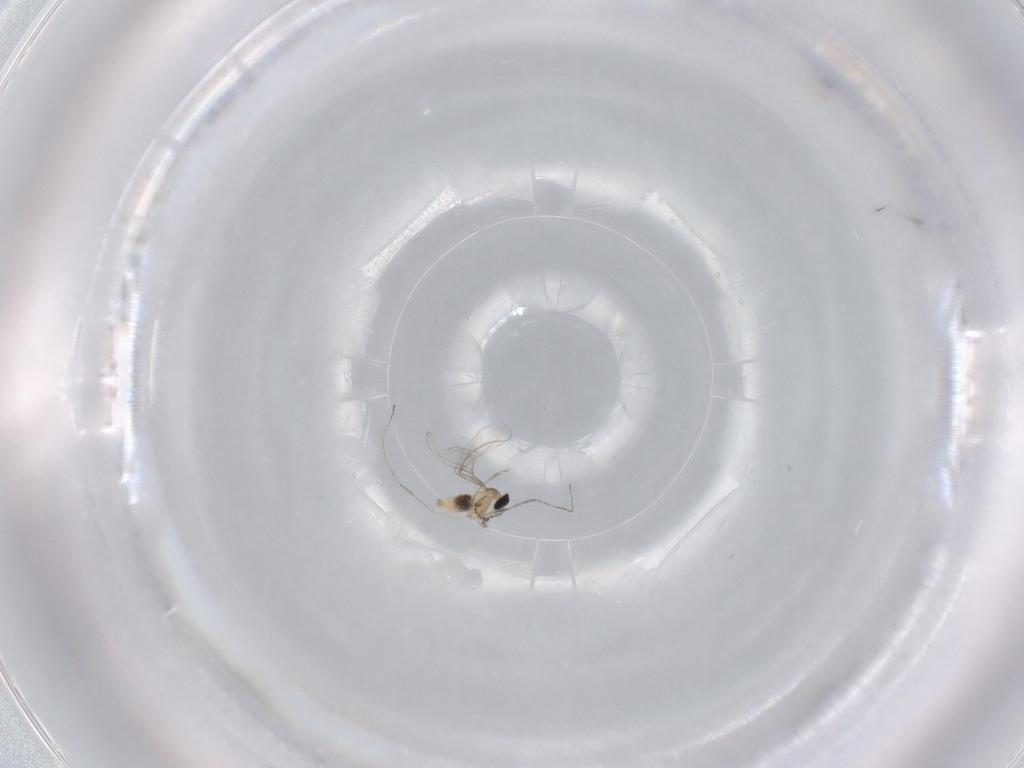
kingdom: Animalia
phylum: Arthropoda
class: Insecta
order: Diptera
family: Cecidomyiidae
